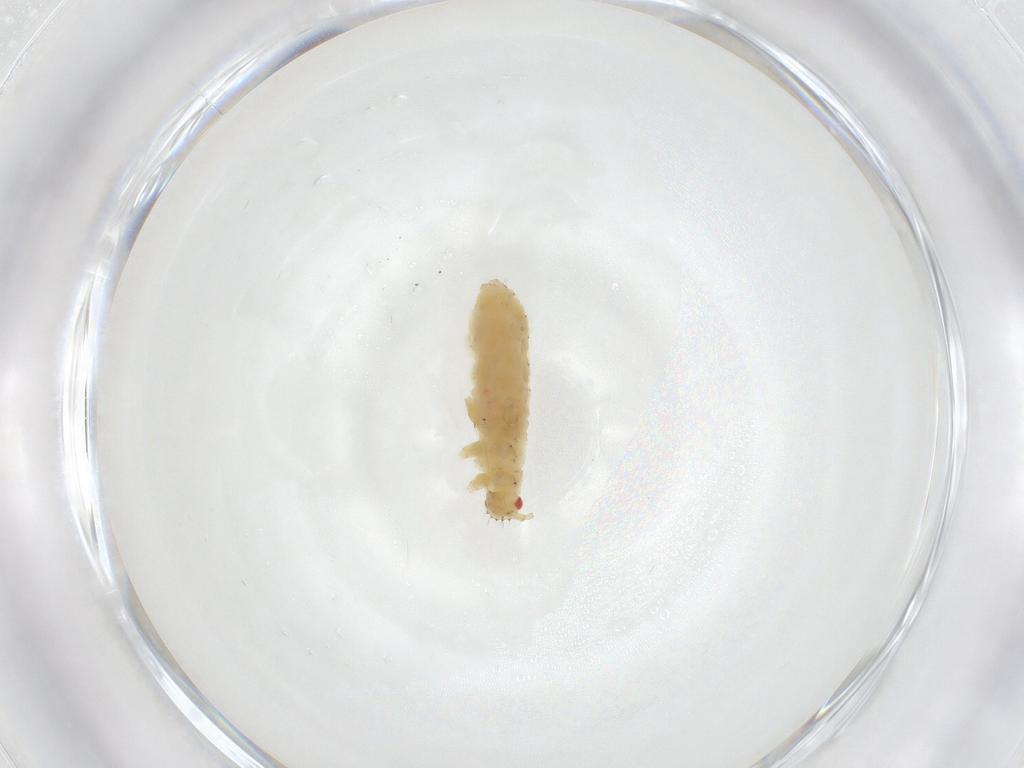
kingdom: Animalia
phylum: Arthropoda
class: Insecta
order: Hemiptera
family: Aphididae
